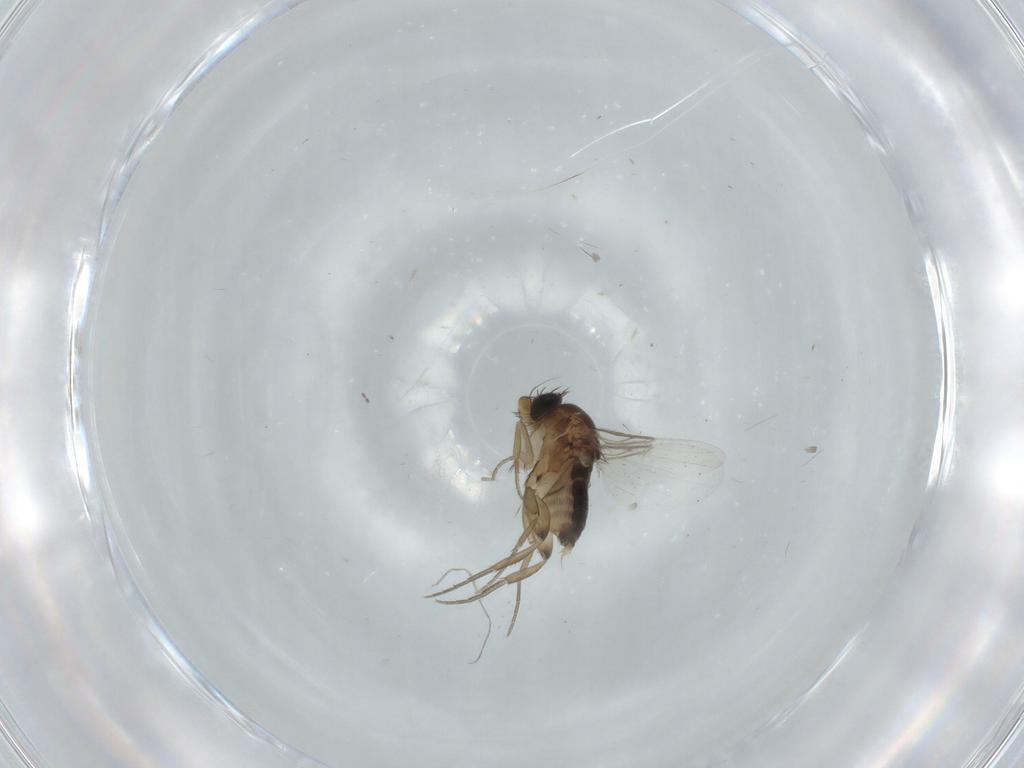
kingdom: Animalia
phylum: Arthropoda
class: Insecta
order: Diptera
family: Phoridae
